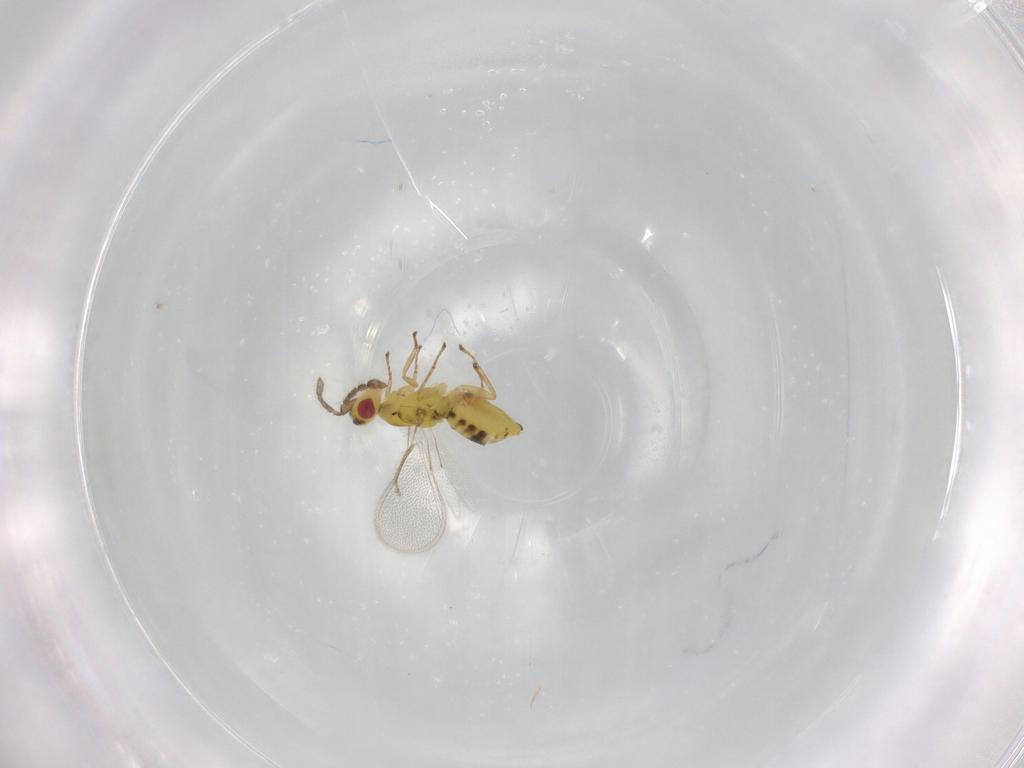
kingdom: Animalia
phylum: Arthropoda
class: Insecta
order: Hymenoptera
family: Eulophidae
